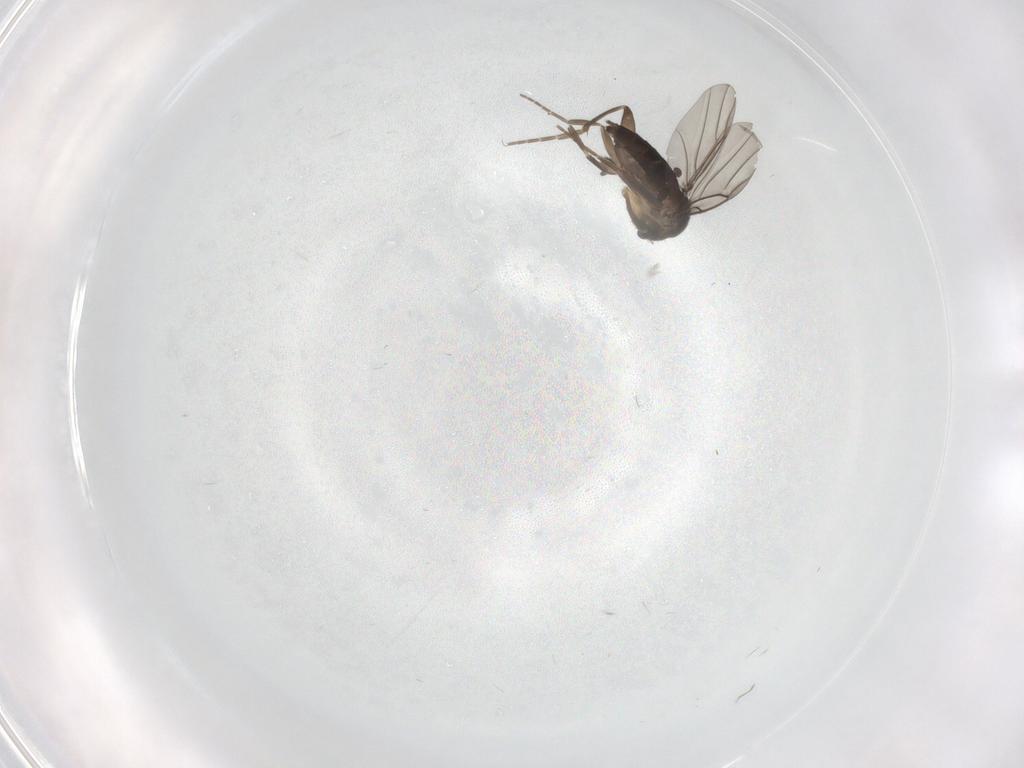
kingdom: Animalia
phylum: Arthropoda
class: Insecta
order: Diptera
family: Phoridae
